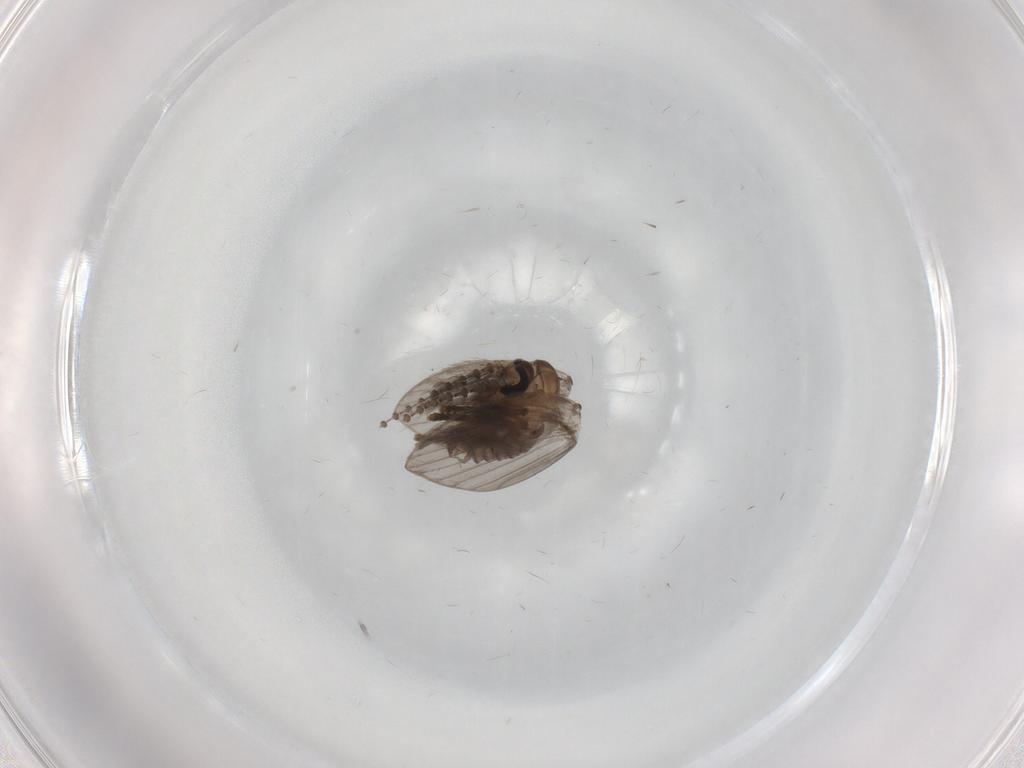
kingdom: Animalia
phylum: Arthropoda
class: Insecta
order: Diptera
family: Psychodidae
